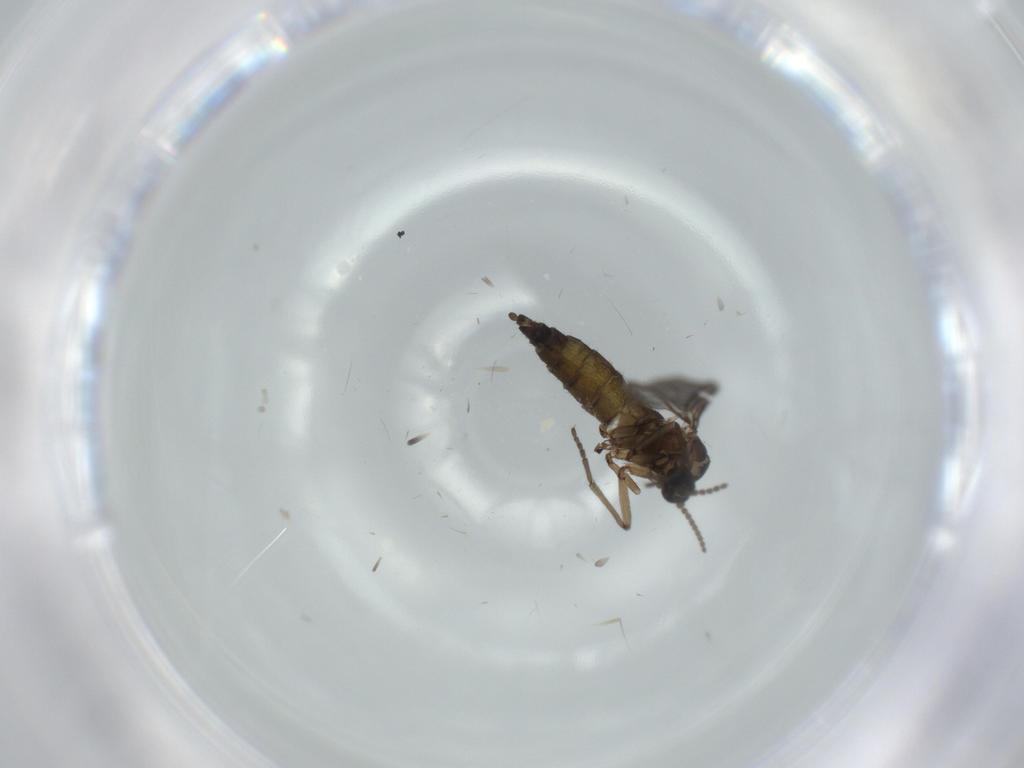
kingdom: Animalia
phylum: Arthropoda
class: Insecta
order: Diptera
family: Sciaridae
